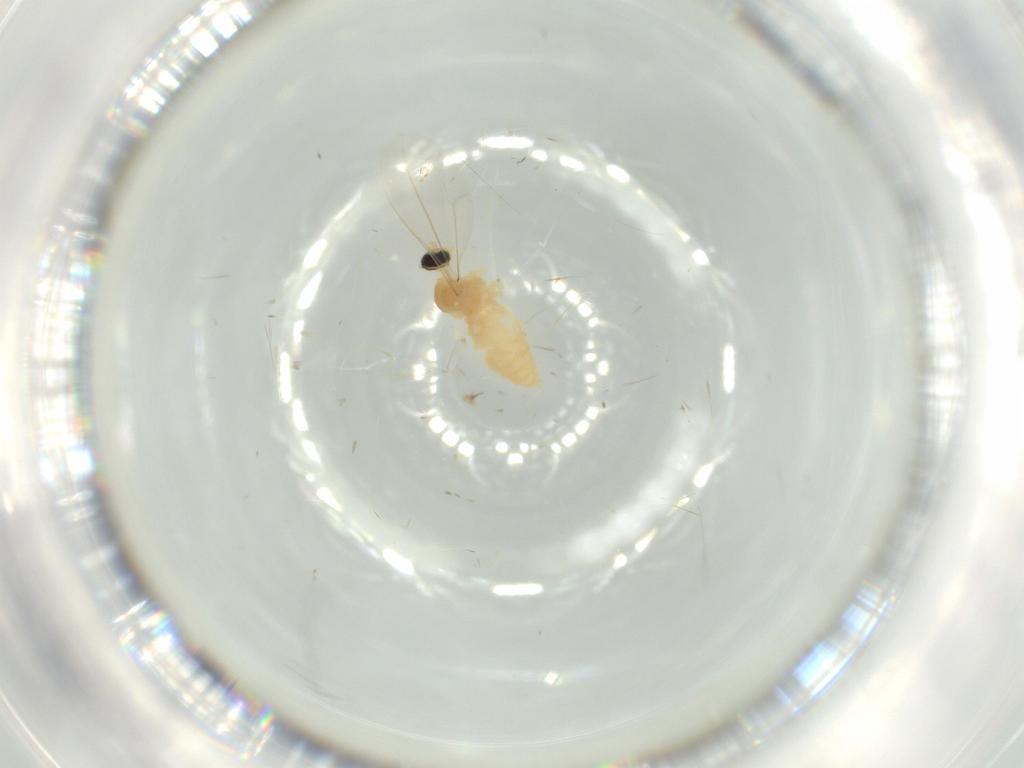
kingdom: Animalia
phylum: Arthropoda
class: Insecta
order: Diptera
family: Cecidomyiidae
